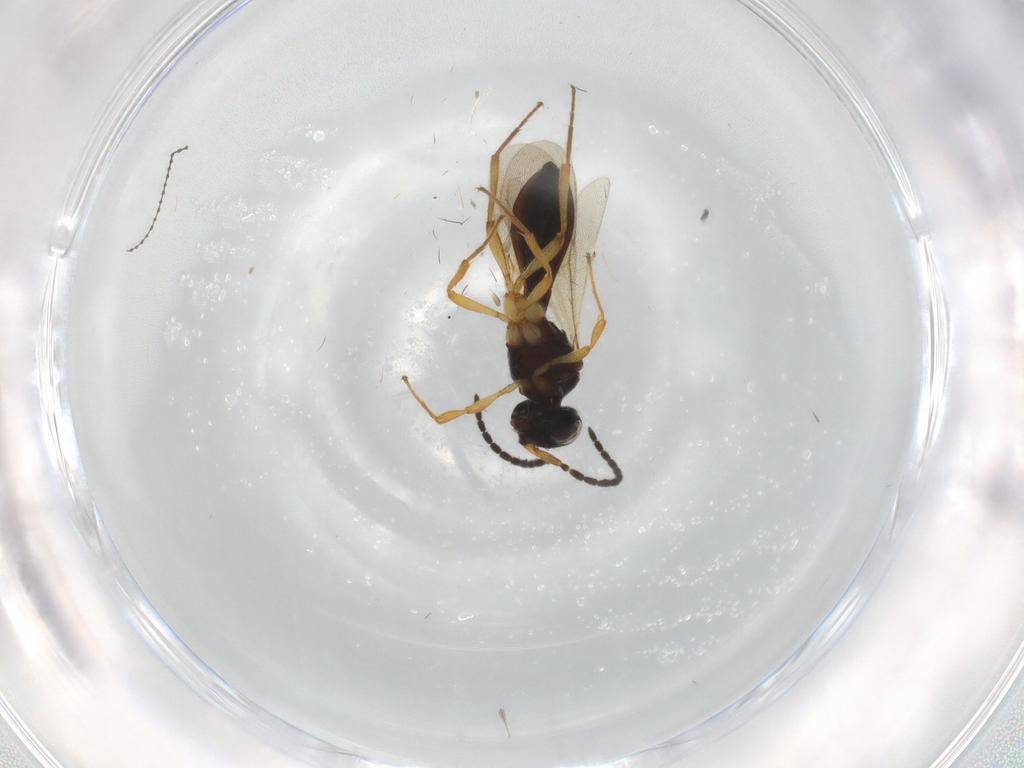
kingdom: Animalia
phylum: Arthropoda
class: Insecta
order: Hymenoptera
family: Scelionidae
